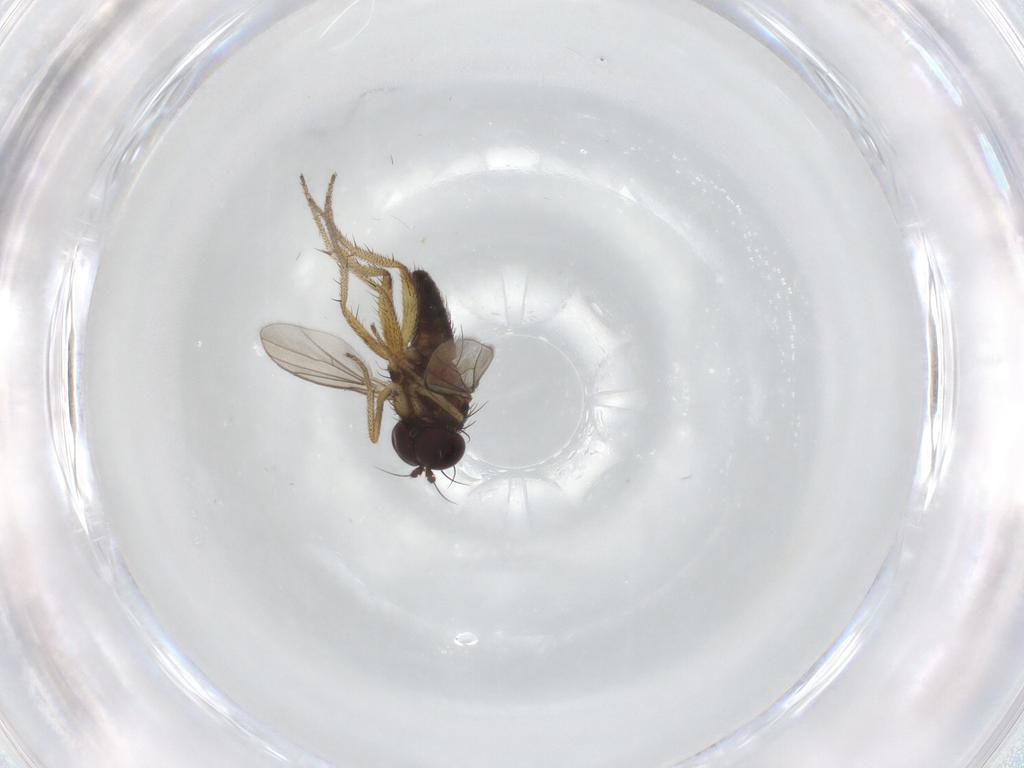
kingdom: Animalia
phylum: Arthropoda
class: Insecta
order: Diptera
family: Dolichopodidae
